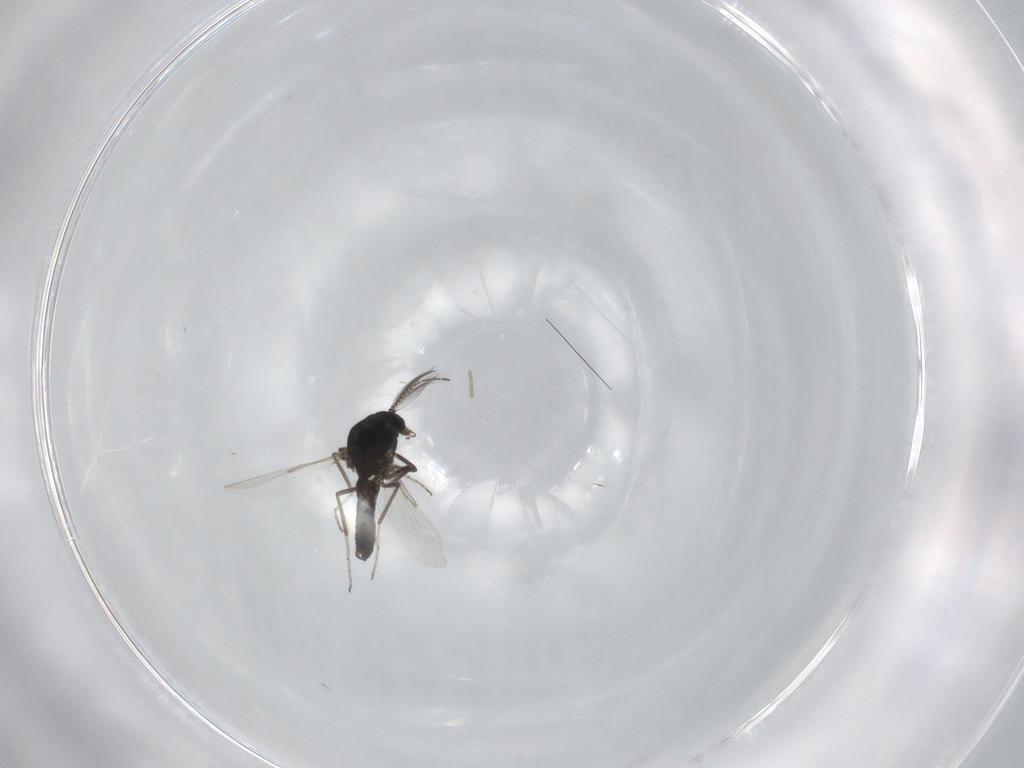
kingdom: Animalia
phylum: Arthropoda
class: Insecta
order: Diptera
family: Ceratopogonidae
